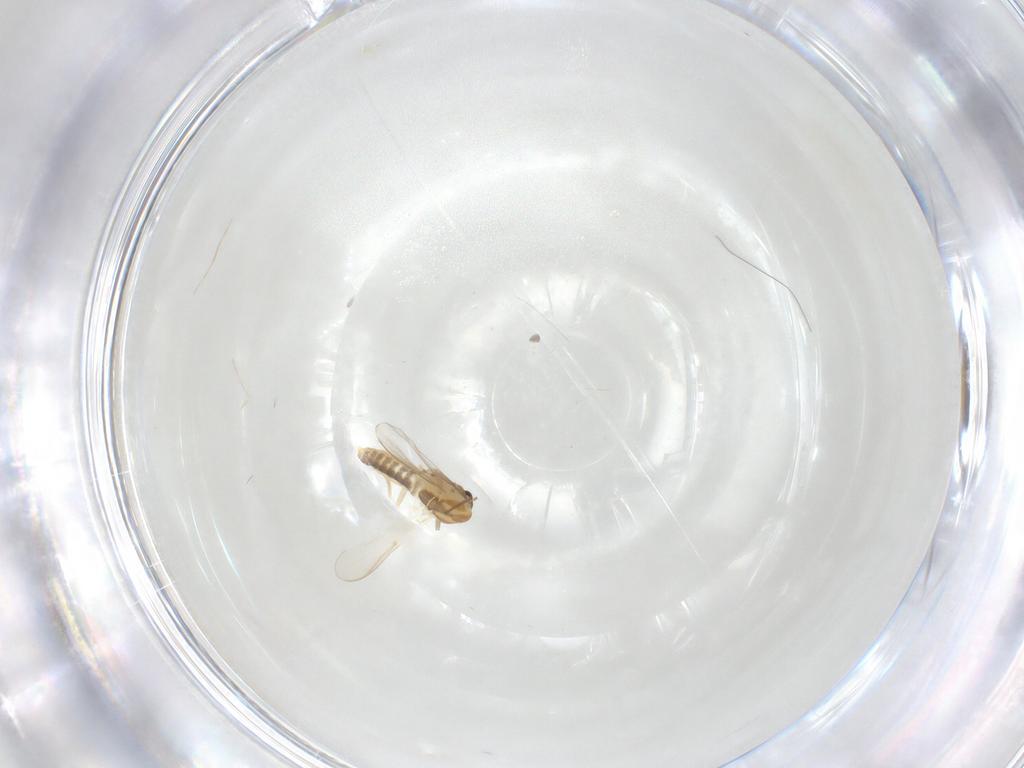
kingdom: Animalia
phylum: Arthropoda
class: Insecta
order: Diptera
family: Chironomidae
